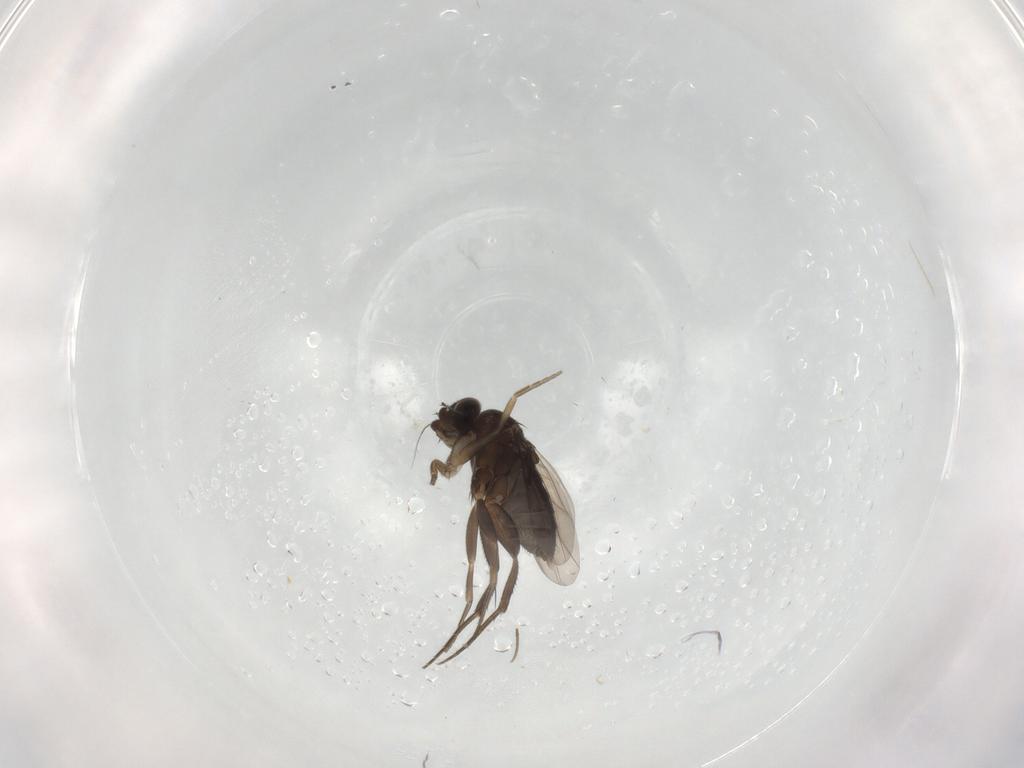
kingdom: Animalia
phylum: Arthropoda
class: Insecta
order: Diptera
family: Phoridae
